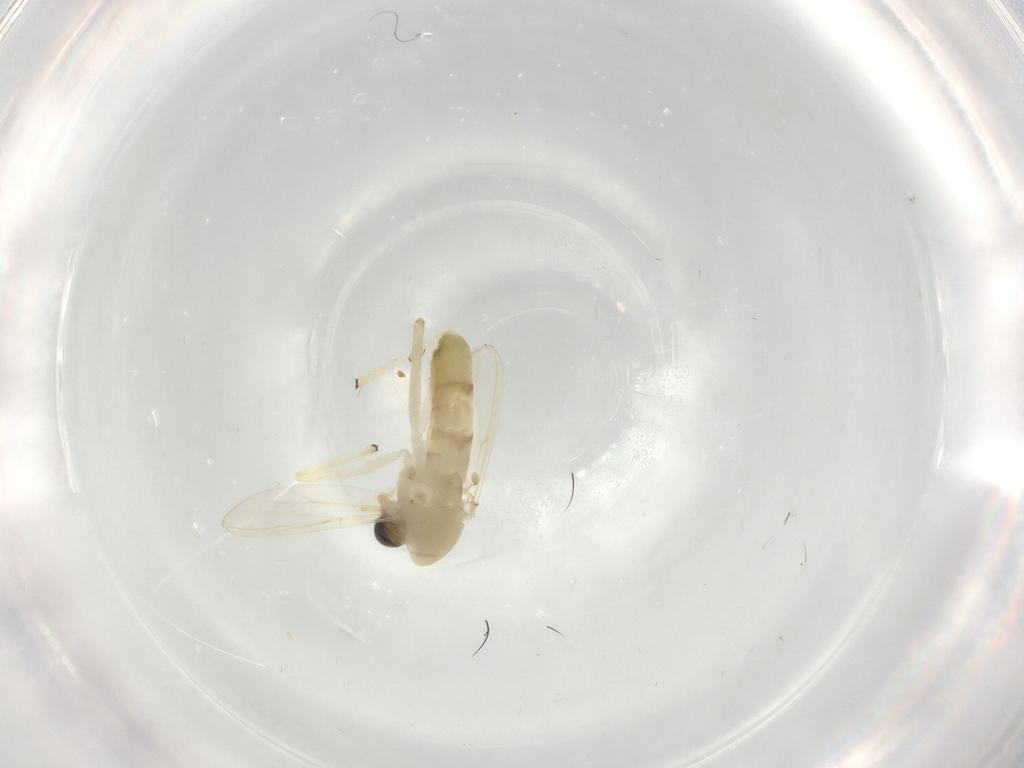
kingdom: Animalia
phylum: Arthropoda
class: Insecta
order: Diptera
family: Chironomidae
